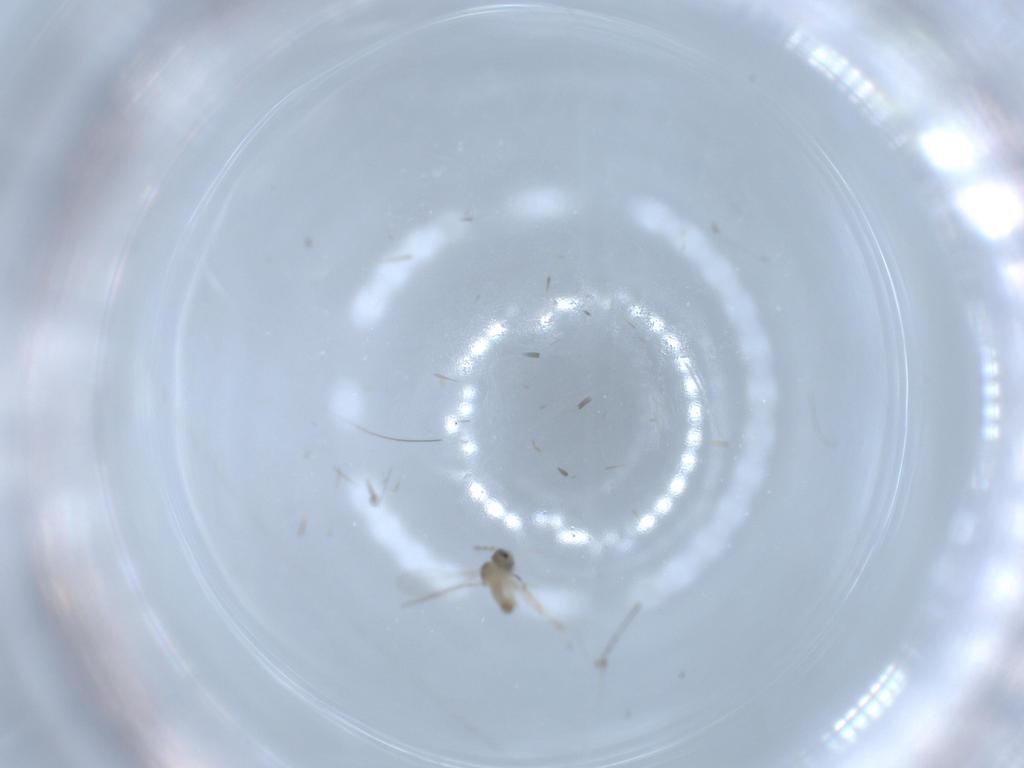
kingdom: Animalia
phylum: Arthropoda
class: Insecta
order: Diptera
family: Cecidomyiidae
